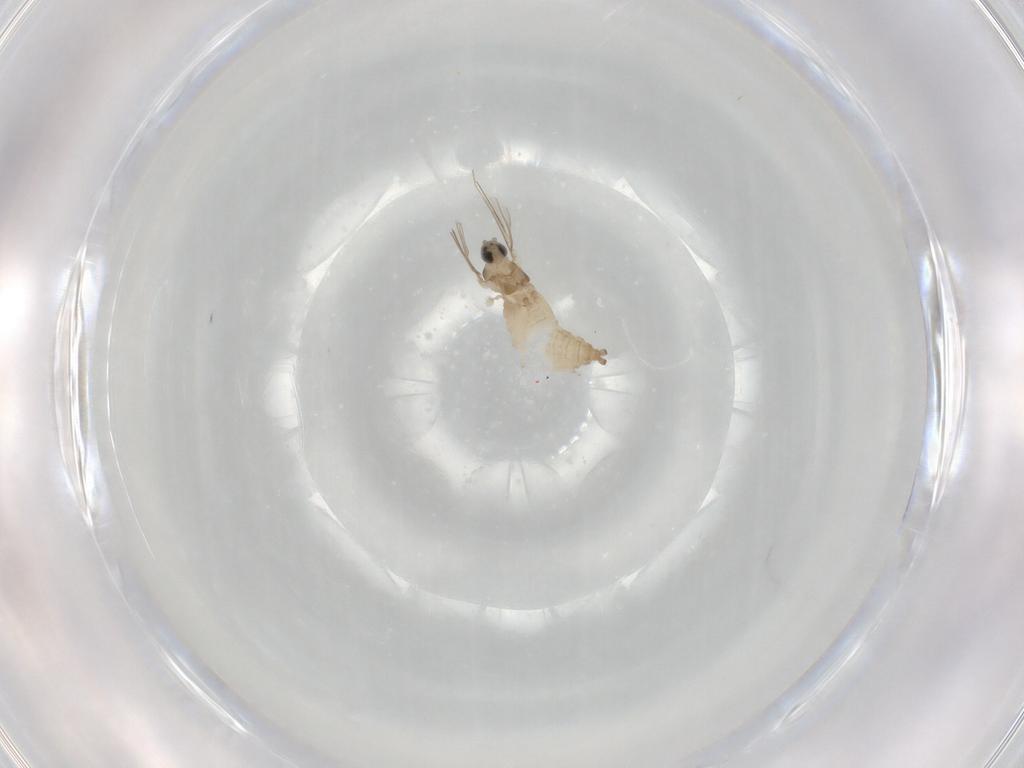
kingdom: Animalia
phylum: Arthropoda
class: Insecta
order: Diptera
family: Cecidomyiidae
